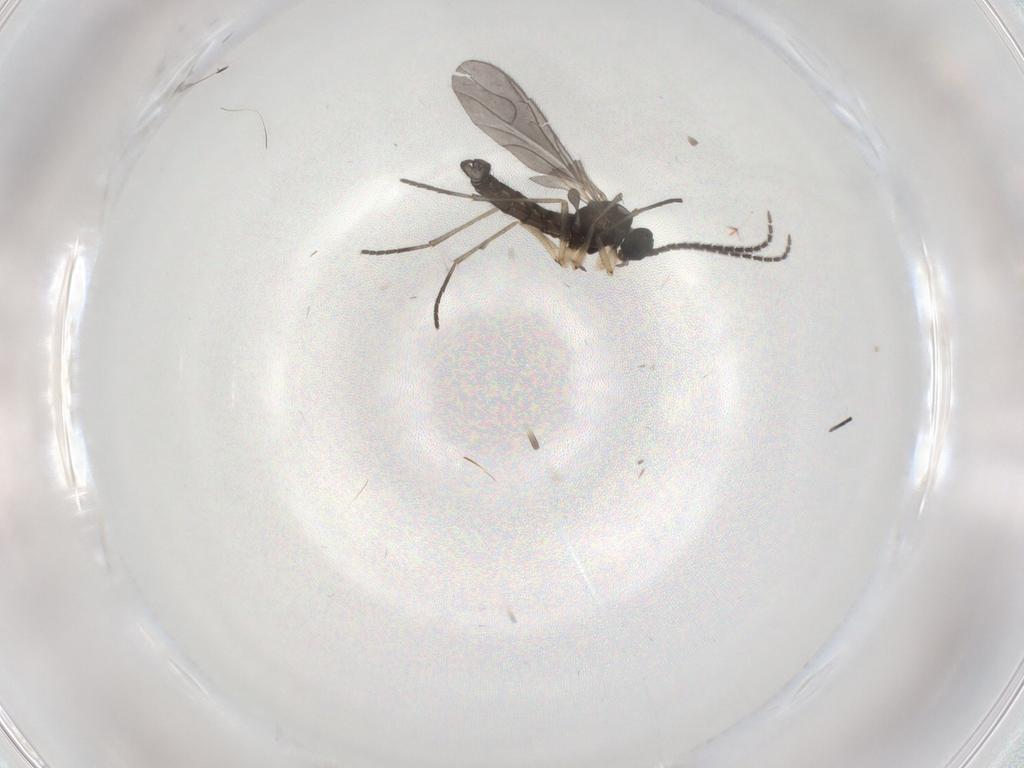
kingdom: Animalia
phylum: Arthropoda
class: Insecta
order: Diptera
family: Sciaridae
